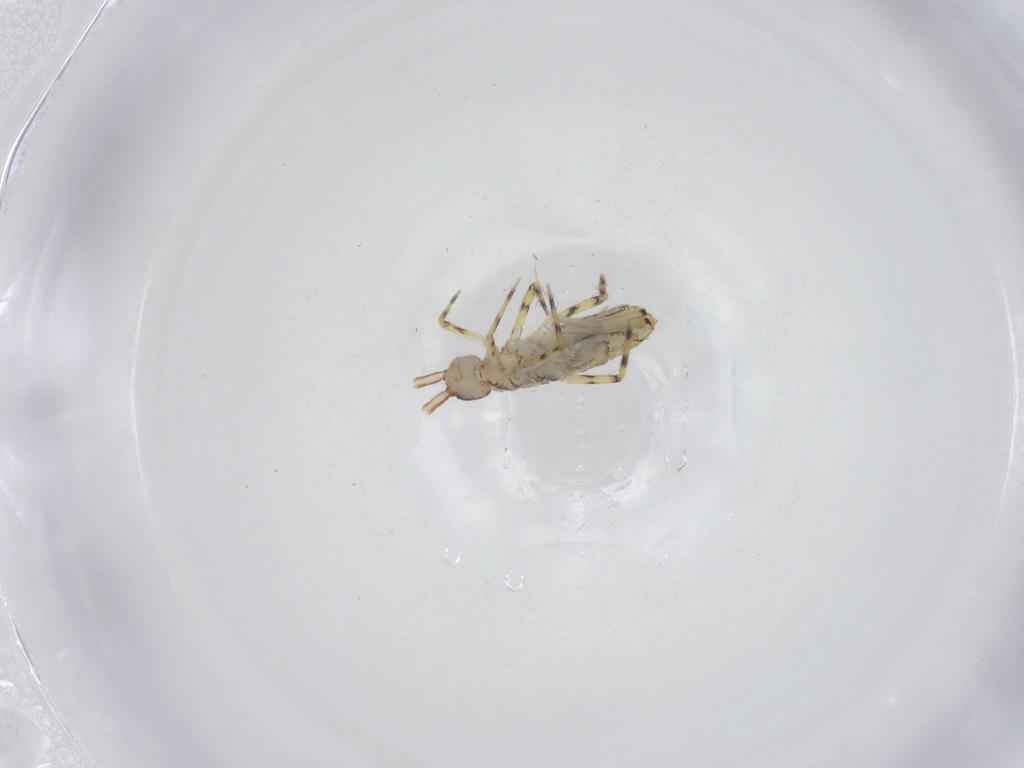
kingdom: Animalia
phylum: Arthropoda
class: Collembola
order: Entomobryomorpha
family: Entomobryidae
